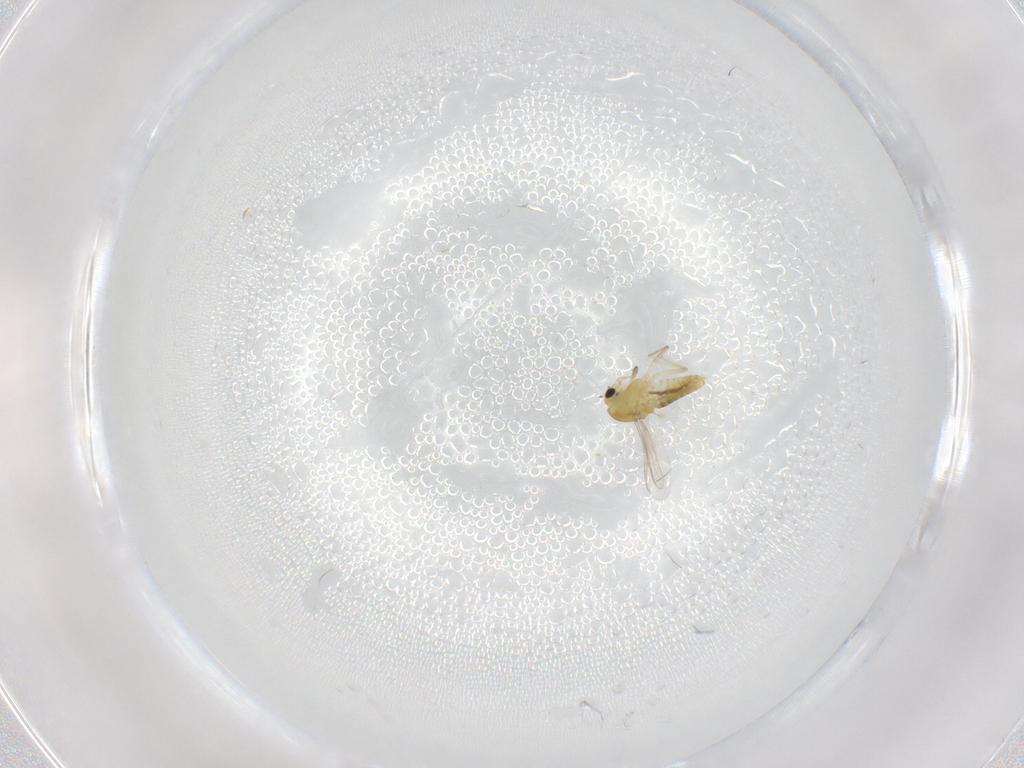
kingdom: Animalia
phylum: Arthropoda
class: Insecta
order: Diptera
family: Chironomidae
